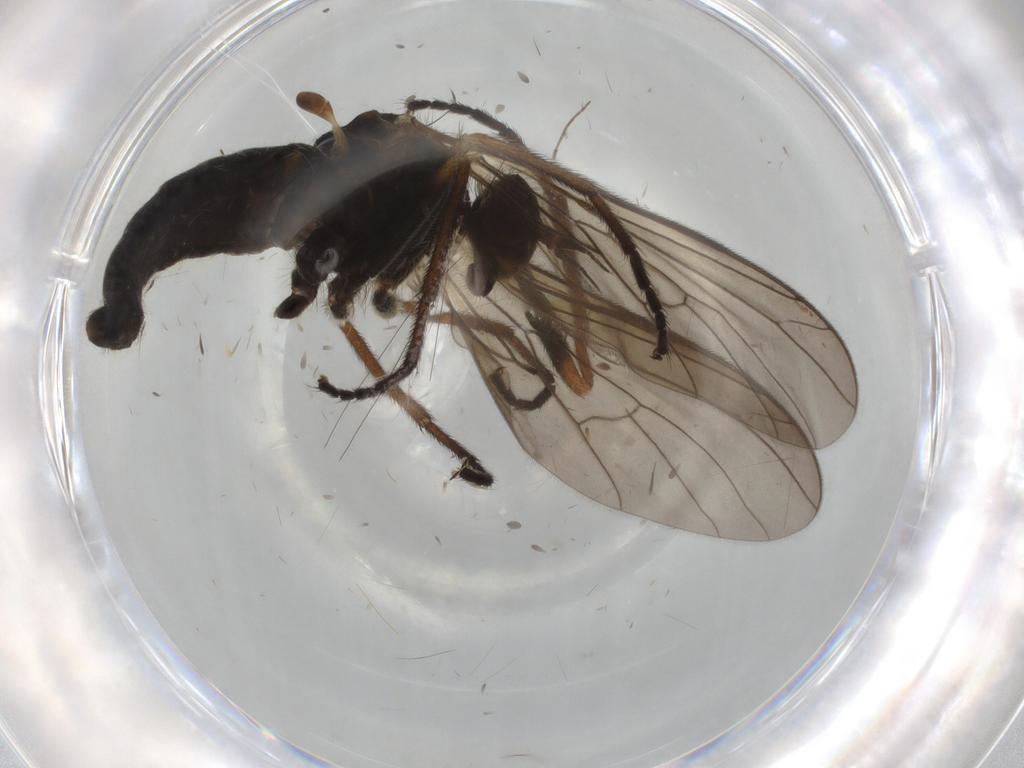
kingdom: Animalia
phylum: Arthropoda
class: Insecta
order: Diptera
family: Empididae
